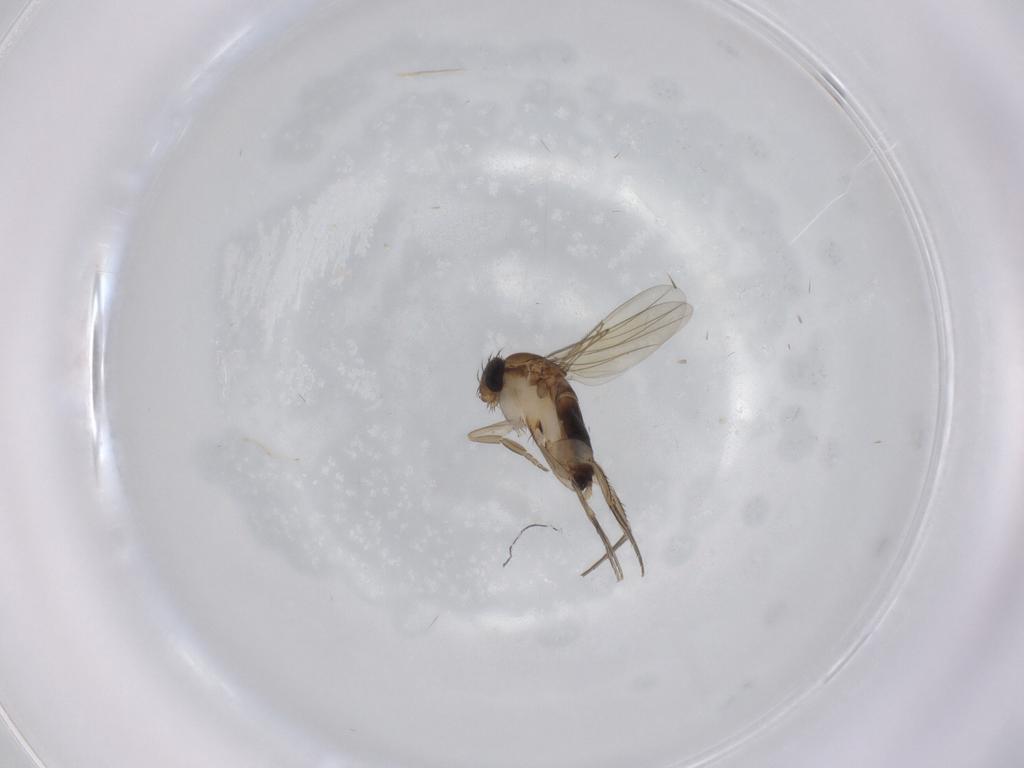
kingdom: Animalia
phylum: Arthropoda
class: Insecta
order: Diptera
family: Phoridae
